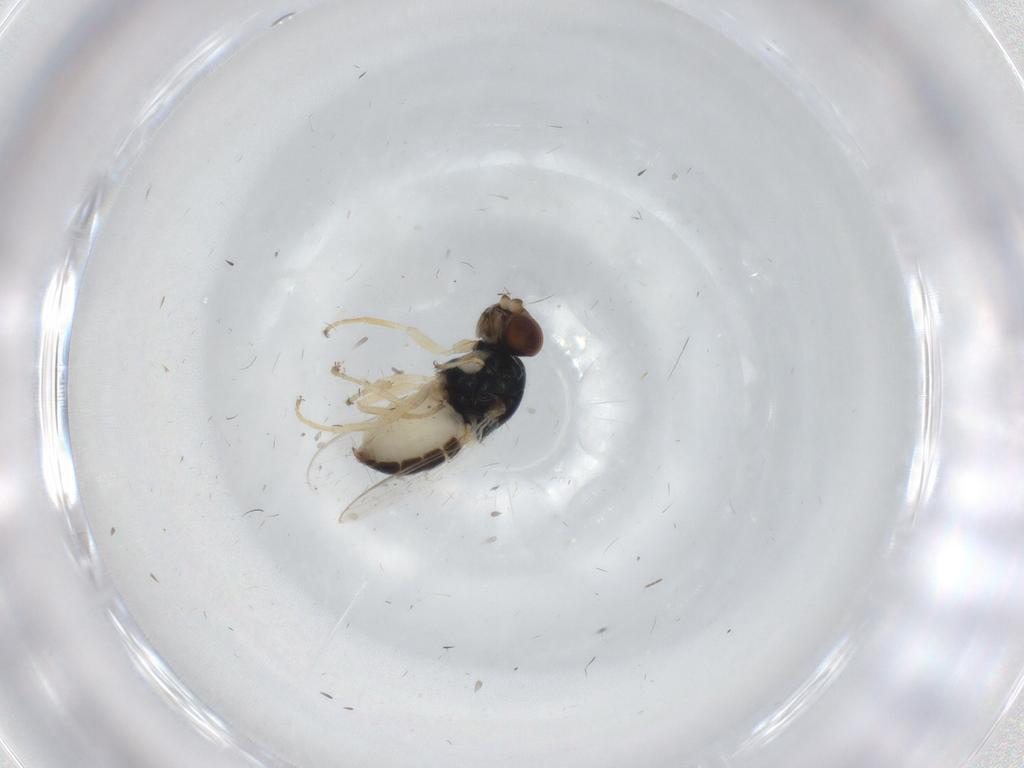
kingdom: Animalia
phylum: Arthropoda
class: Insecta
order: Diptera
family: Chloropidae
